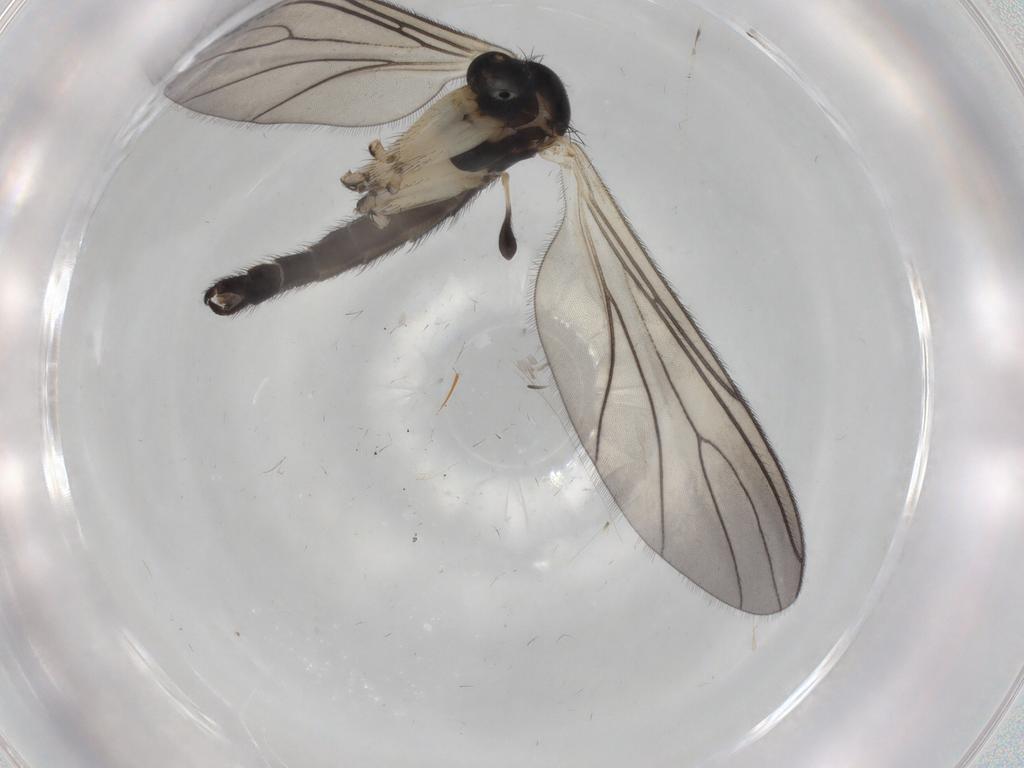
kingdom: Animalia
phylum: Arthropoda
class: Insecta
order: Diptera
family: Sciaridae
